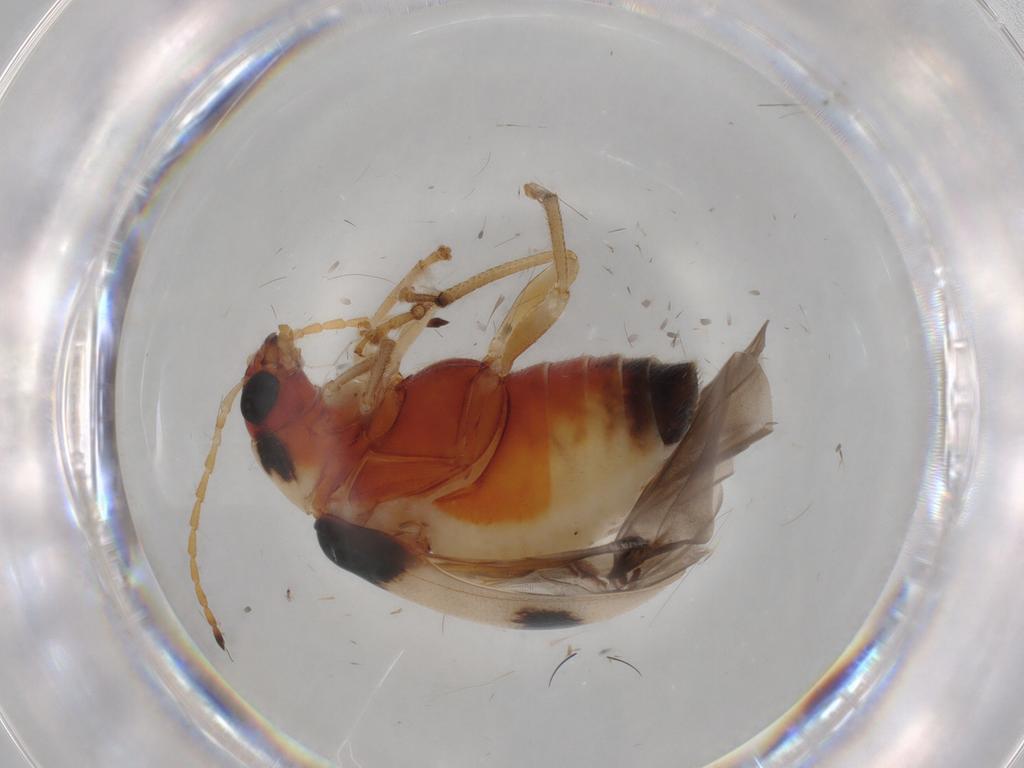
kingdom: Animalia
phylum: Arthropoda
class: Insecta
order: Coleoptera
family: Chrysomelidae
